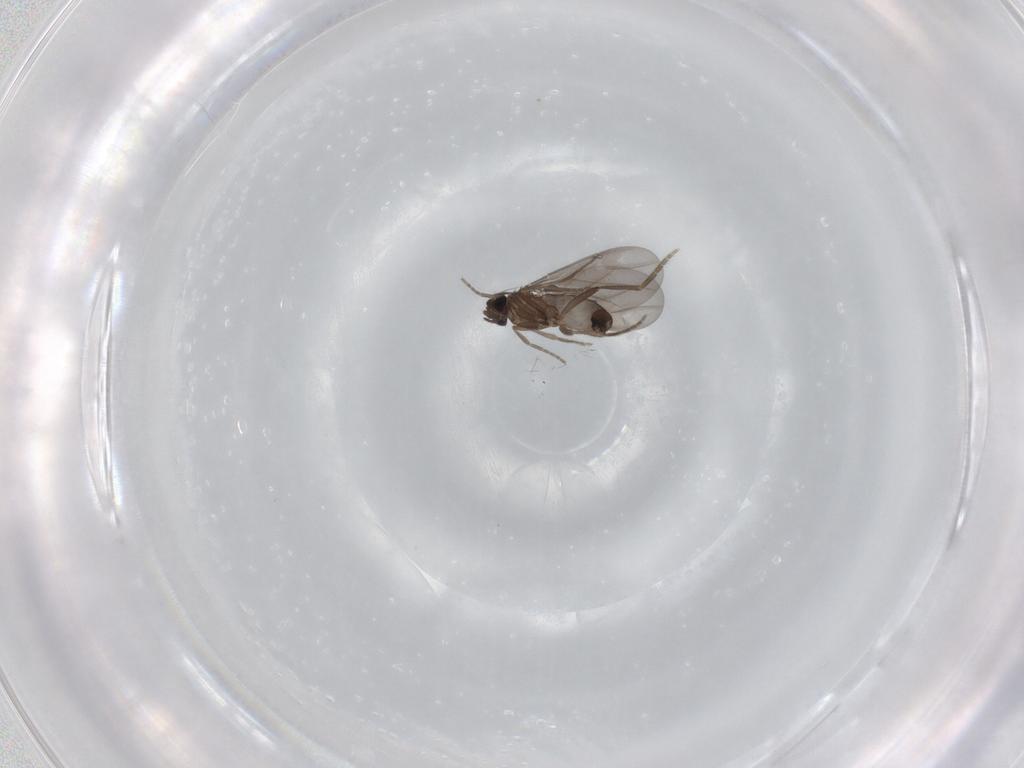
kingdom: Animalia
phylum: Arthropoda
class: Insecta
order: Diptera
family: Phoridae
